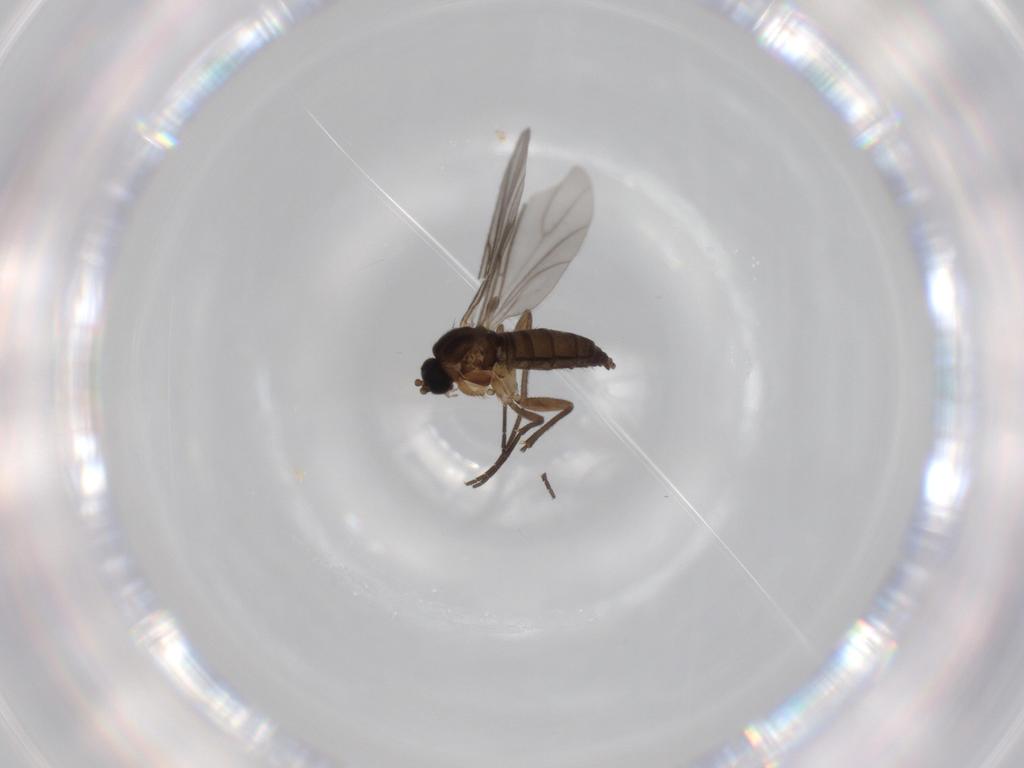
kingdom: Animalia
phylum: Arthropoda
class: Insecta
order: Diptera
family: Sciaridae
